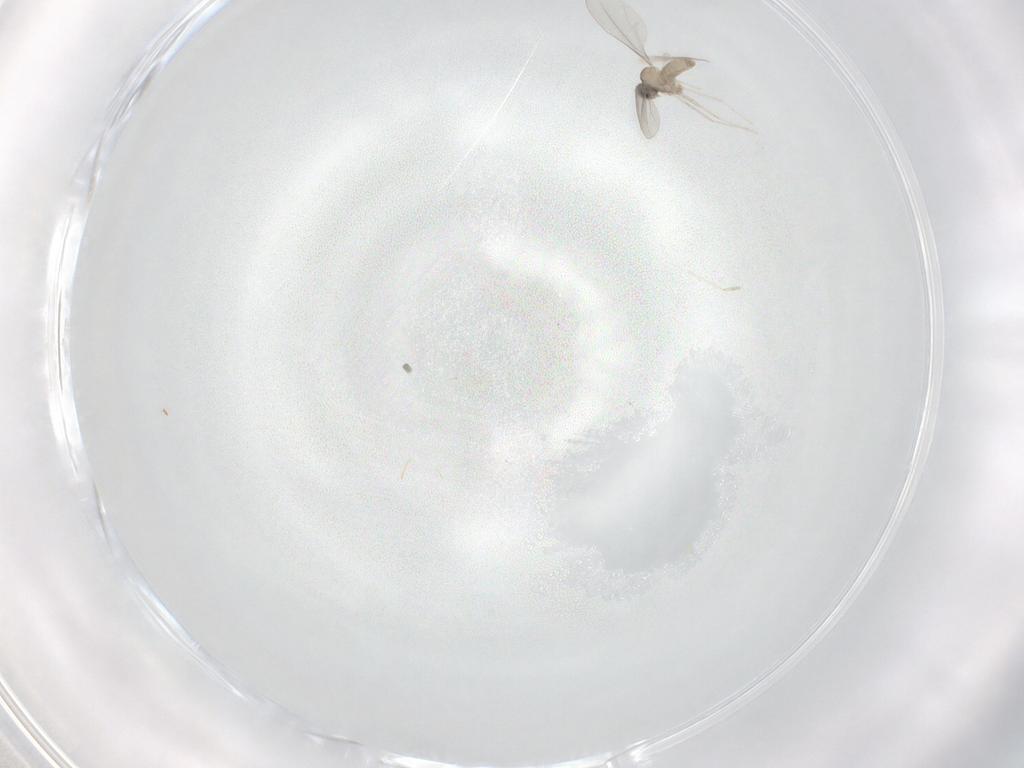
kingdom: Animalia
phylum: Arthropoda
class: Insecta
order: Diptera
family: Cecidomyiidae
